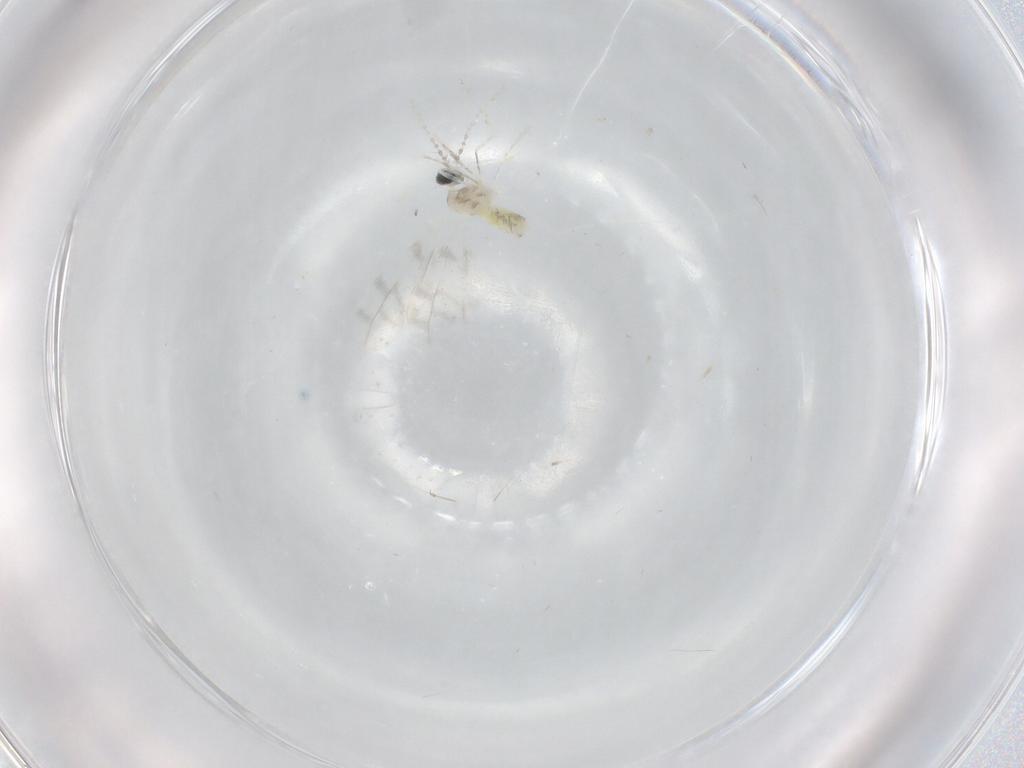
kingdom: Animalia
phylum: Arthropoda
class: Insecta
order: Diptera
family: Cecidomyiidae
